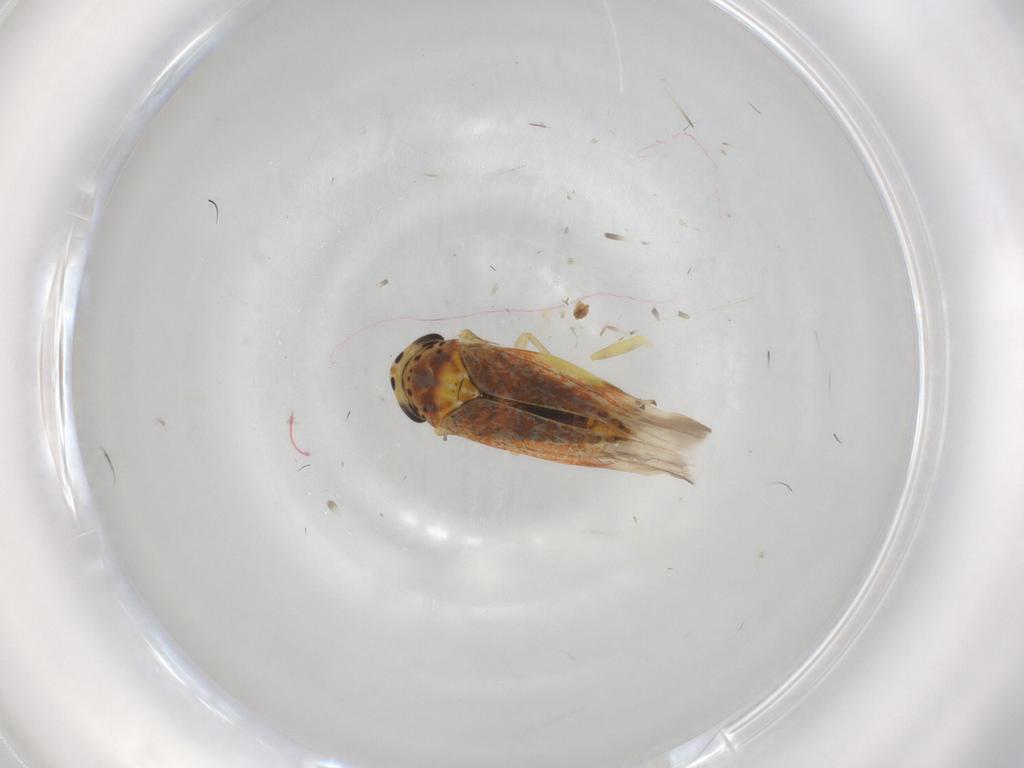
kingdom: Animalia
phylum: Arthropoda
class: Insecta
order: Hemiptera
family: Cicadellidae
